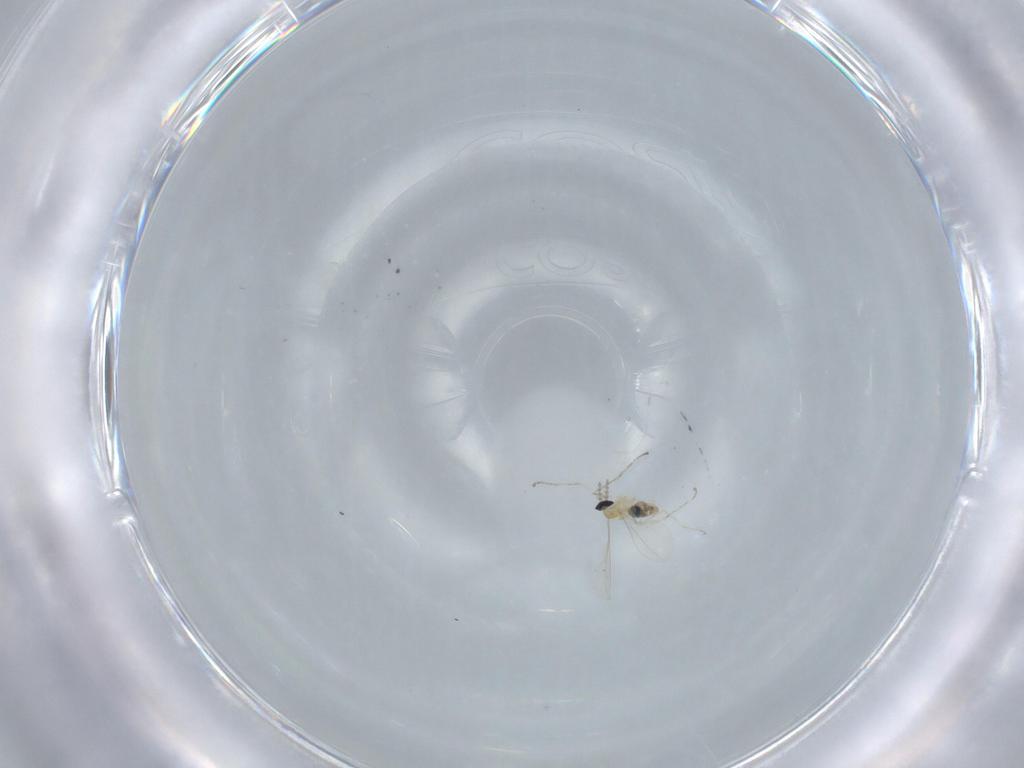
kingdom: Animalia
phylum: Arthropoda
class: Insecta
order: Diptera
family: Cecidomyiidae
